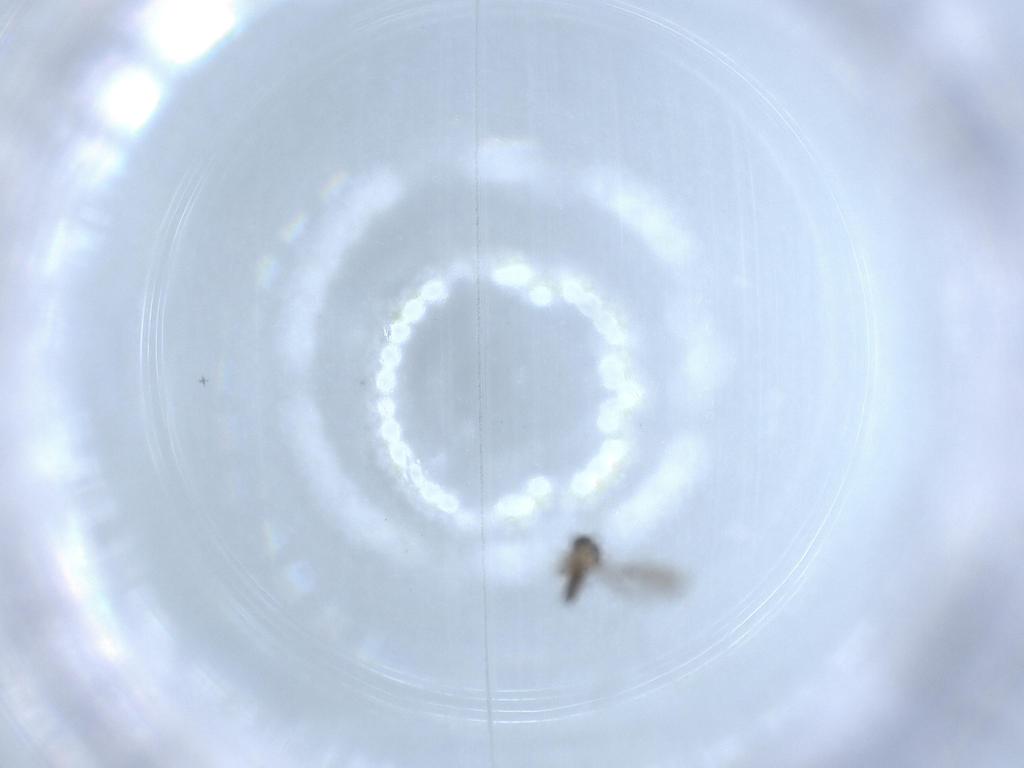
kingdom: Animalia
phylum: Arthropoda
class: Insecta
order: Diptera
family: Cecidomyiidae
